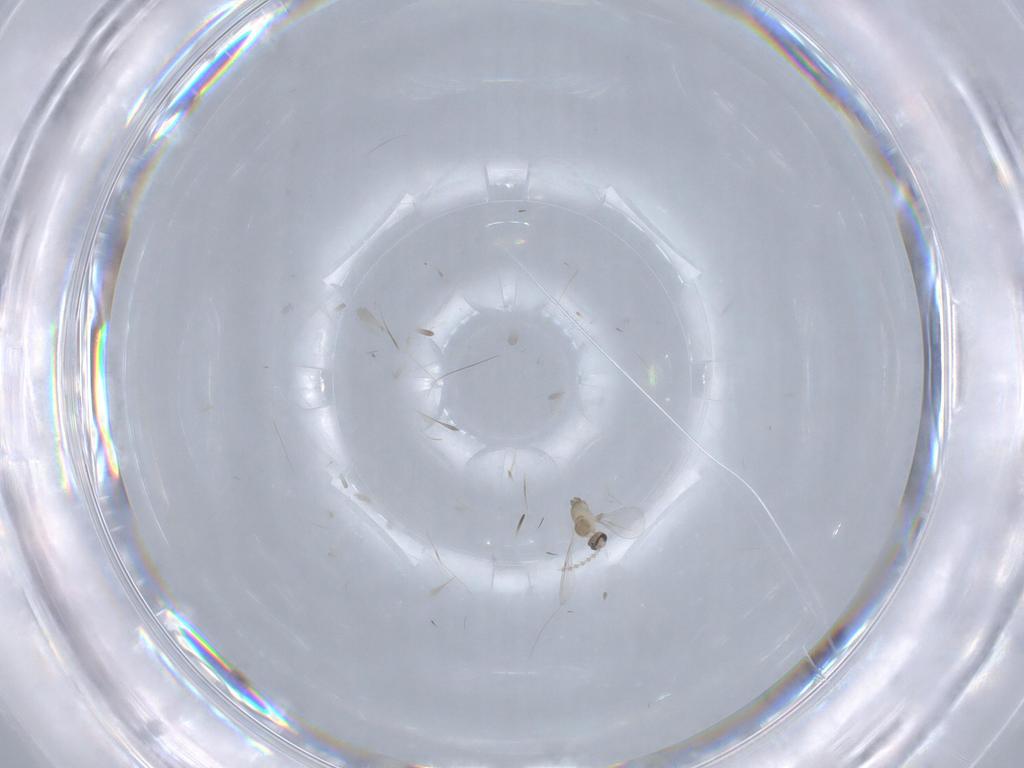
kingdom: Animalia
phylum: Arthropoda
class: Insecta
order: Diptera
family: Cecidomyiidae
